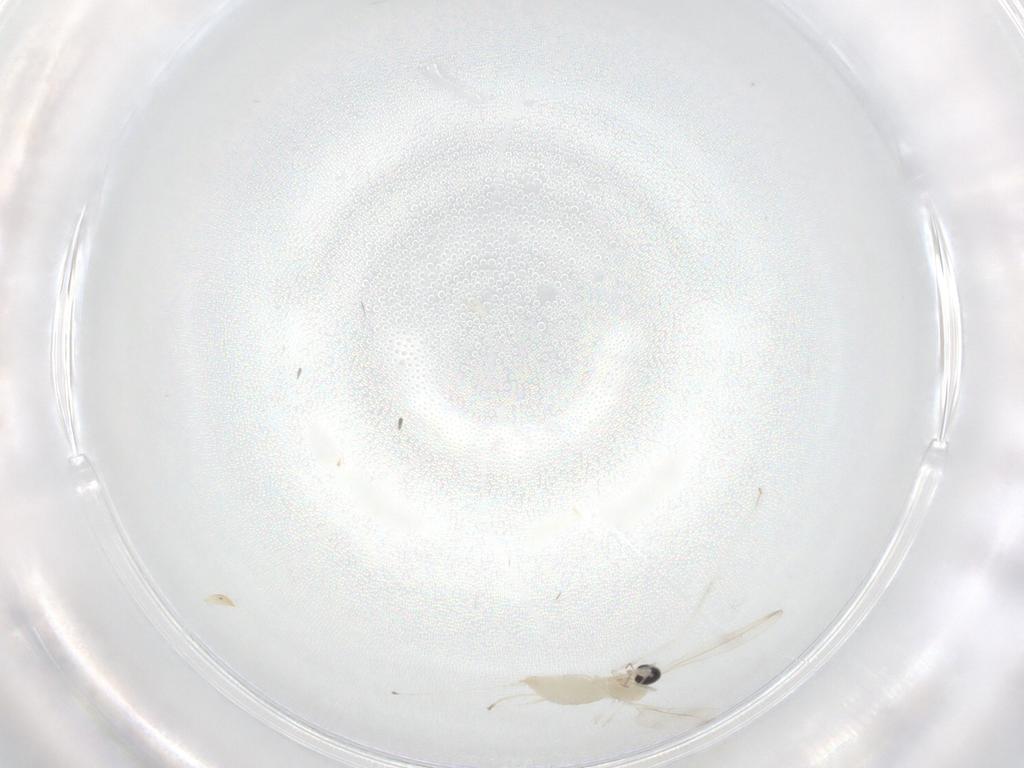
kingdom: Animalia
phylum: Arthropoda
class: Insecta
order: Diptera
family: Cecidomyiidae
